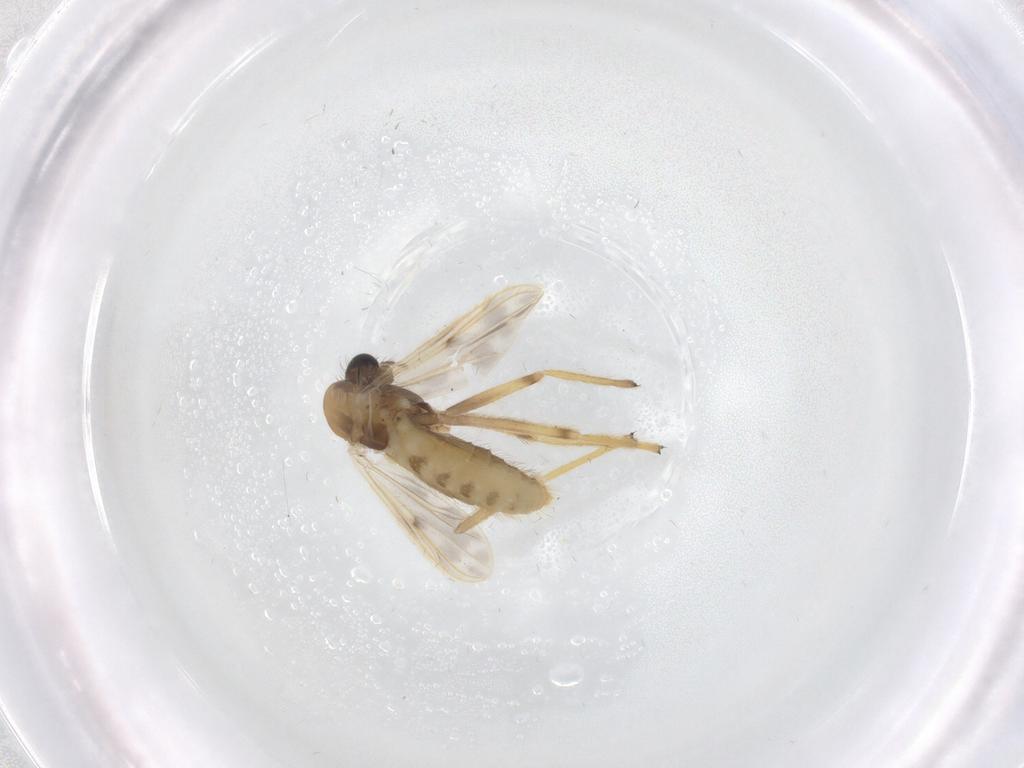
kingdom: Animalia
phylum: Arthropoda
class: Insecta
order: Diptera
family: Chironomidae
